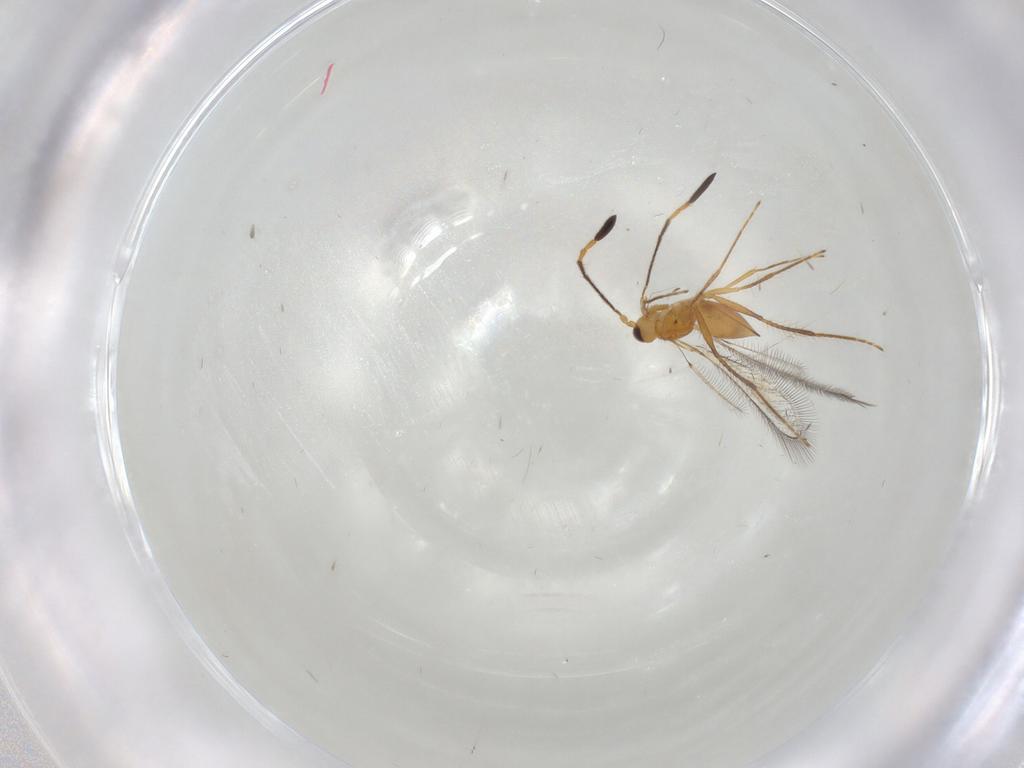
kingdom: Animalia
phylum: Arthropoda
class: Insecta
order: Hymenoptera
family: Mymaridae
